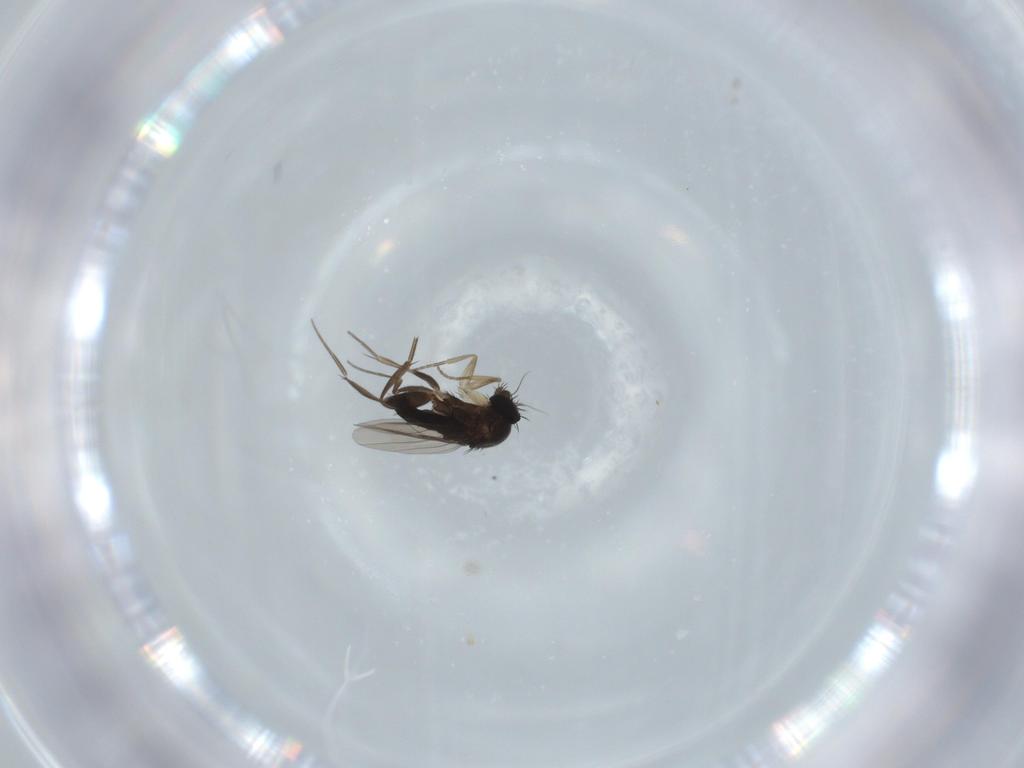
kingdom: Animalia
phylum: Arthropoda
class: Insecta
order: Diptera
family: Phoridae
